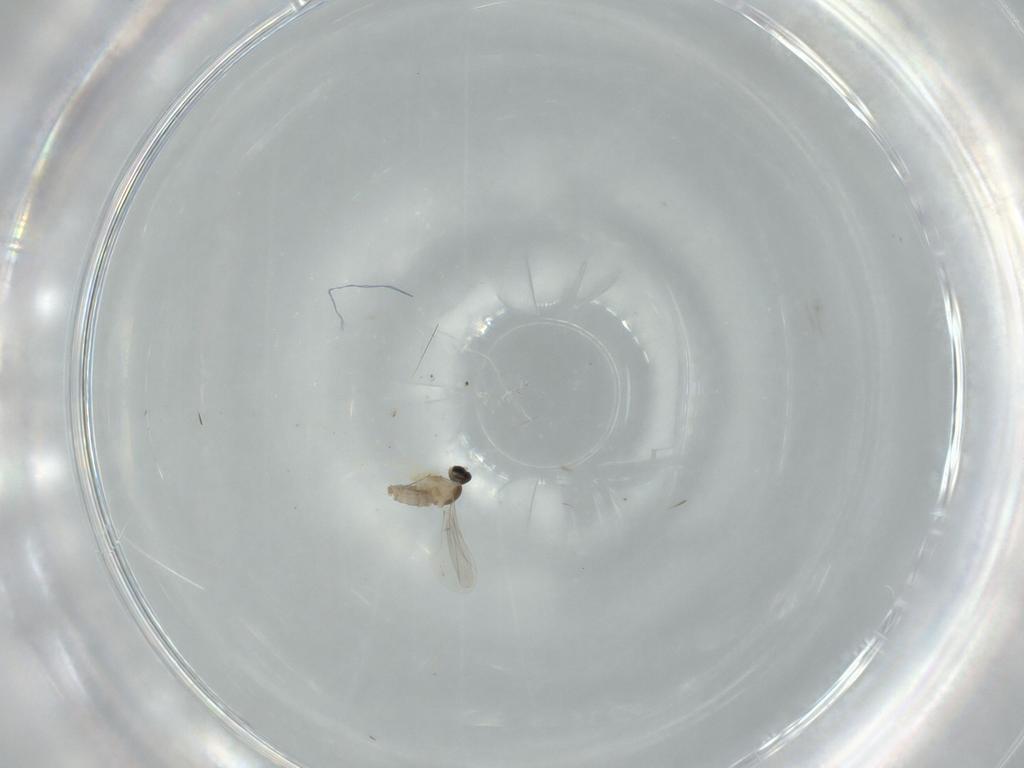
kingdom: Animalia
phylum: Arthropoda
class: Insecta
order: Diptera
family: Cecidomyiidae
